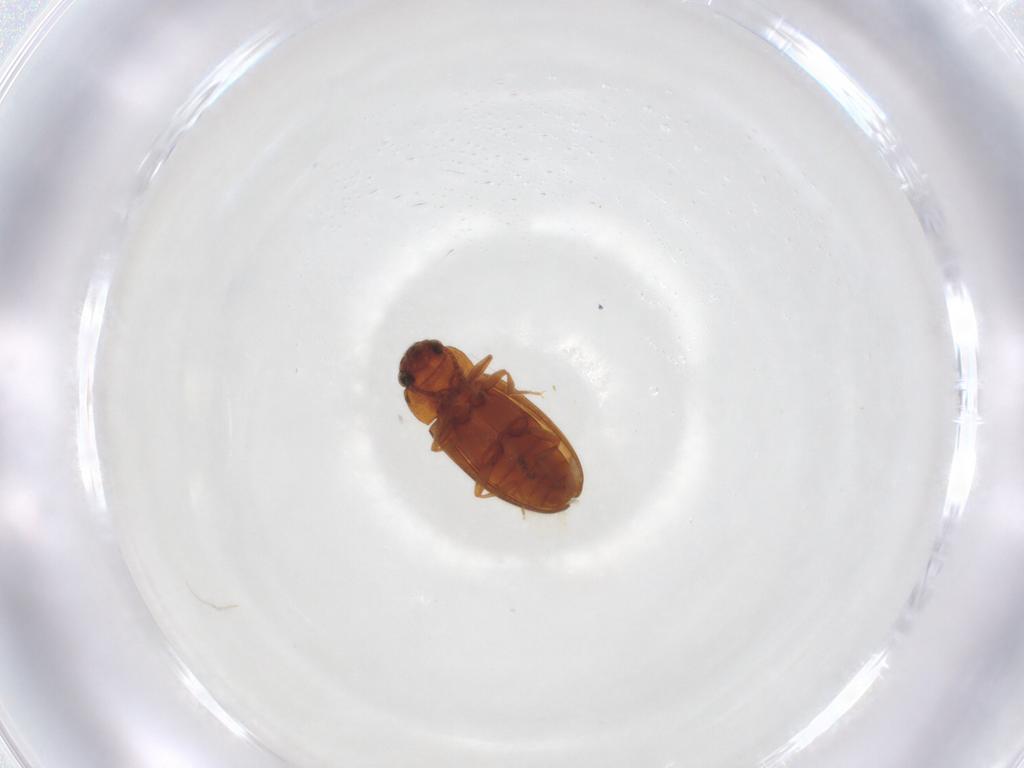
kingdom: Animalia
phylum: Arthropoda
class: Insecta
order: Coleoptera
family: Erotylidae
